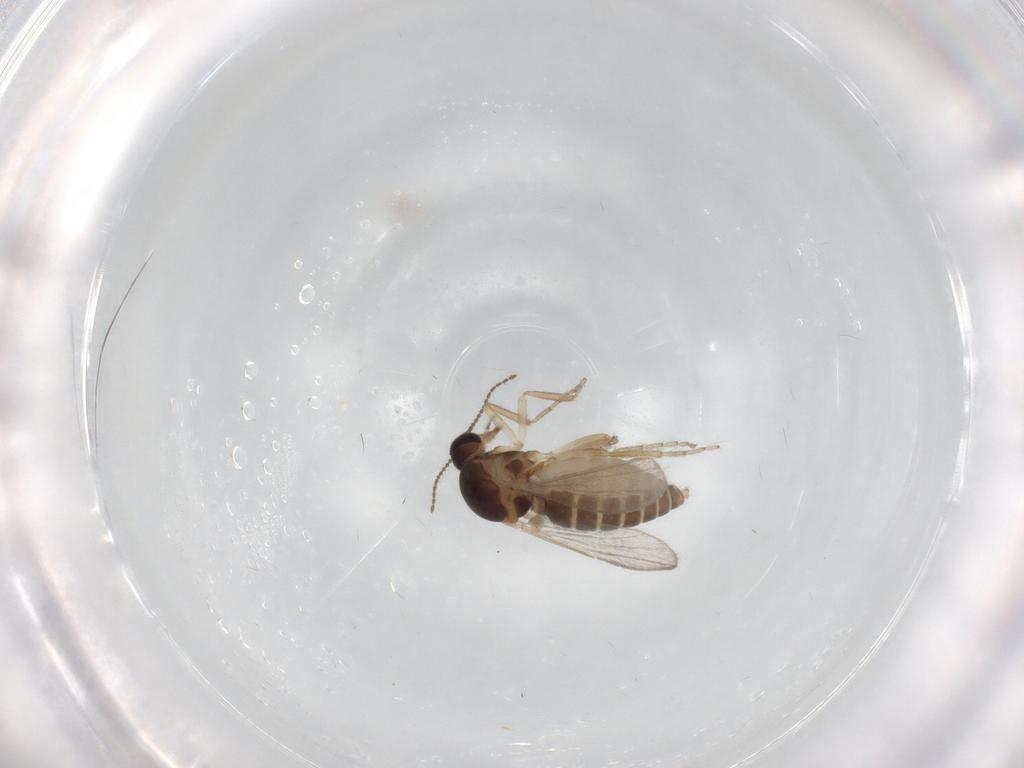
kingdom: Animalia
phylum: Arthropoda
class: Insecta
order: Diptera
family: Ceratopogonidae
